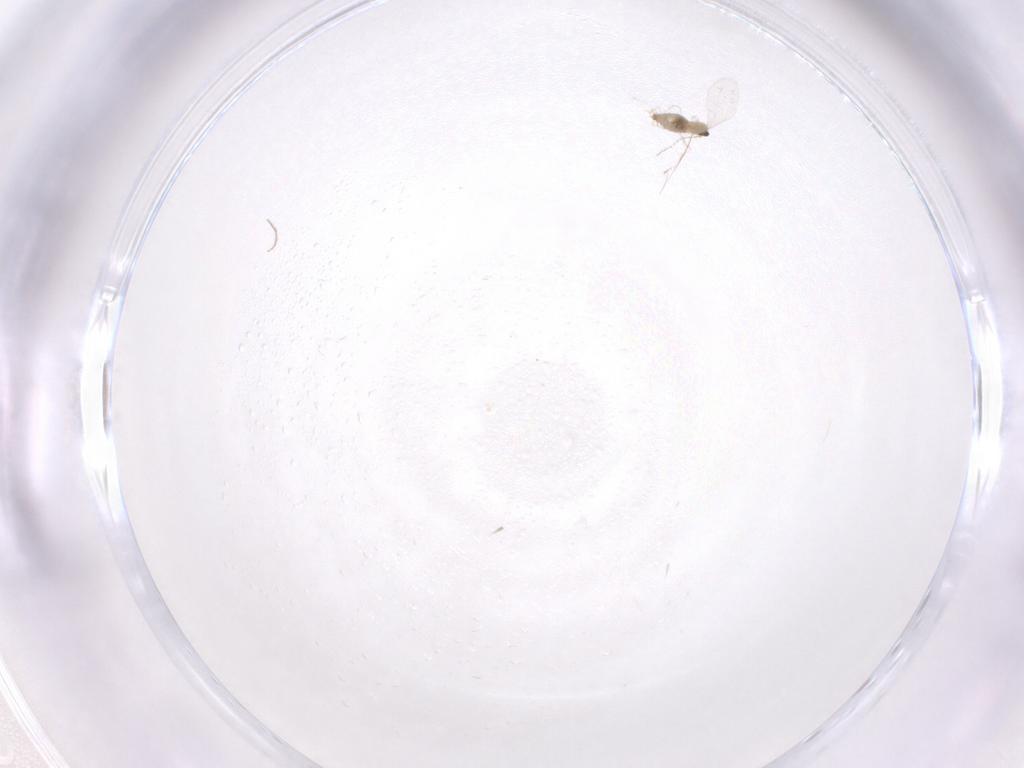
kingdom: Animalia
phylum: Arthropoda
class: Insecta
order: Diptera
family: Cecidomyiidae
